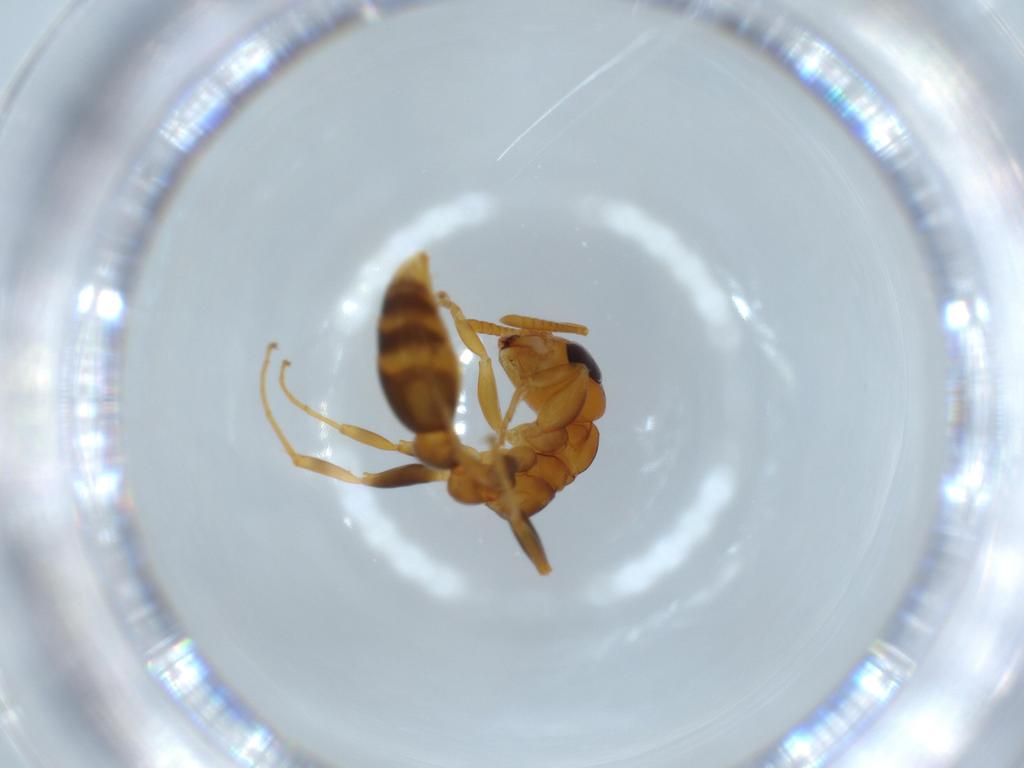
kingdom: Animalia
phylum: Arthropoda
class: Insecta
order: Hymenoptera
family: Formicidae
